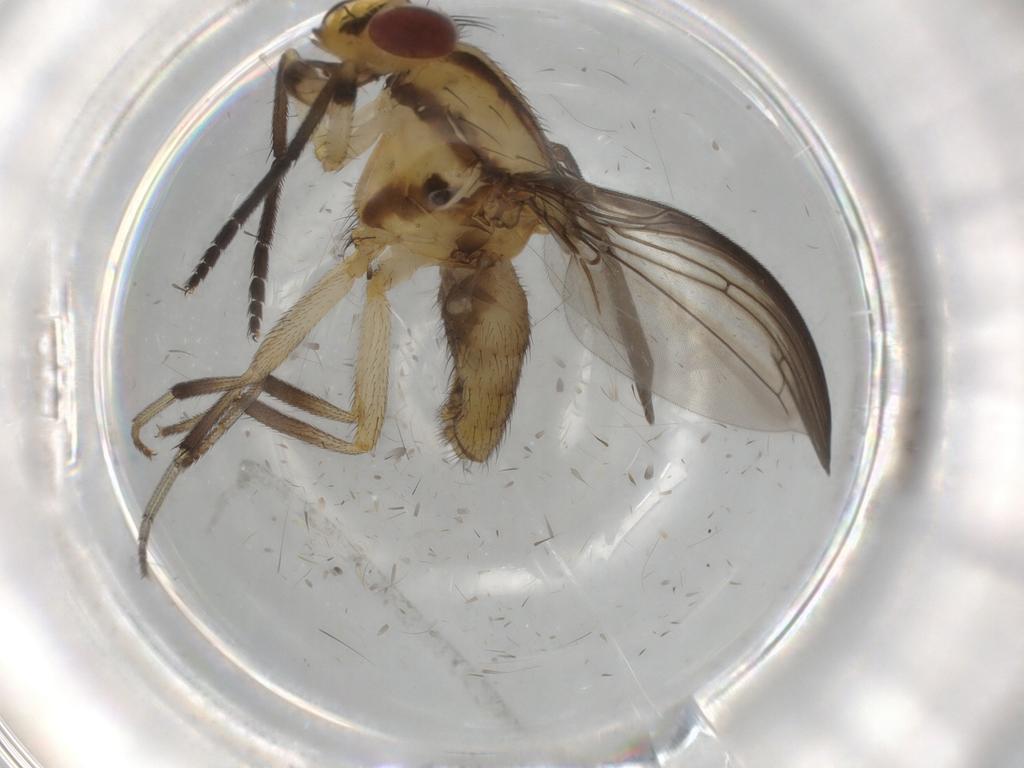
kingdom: Animalia
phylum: Arthropoda
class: Insecta
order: Diptera
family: Lauxaniidae
